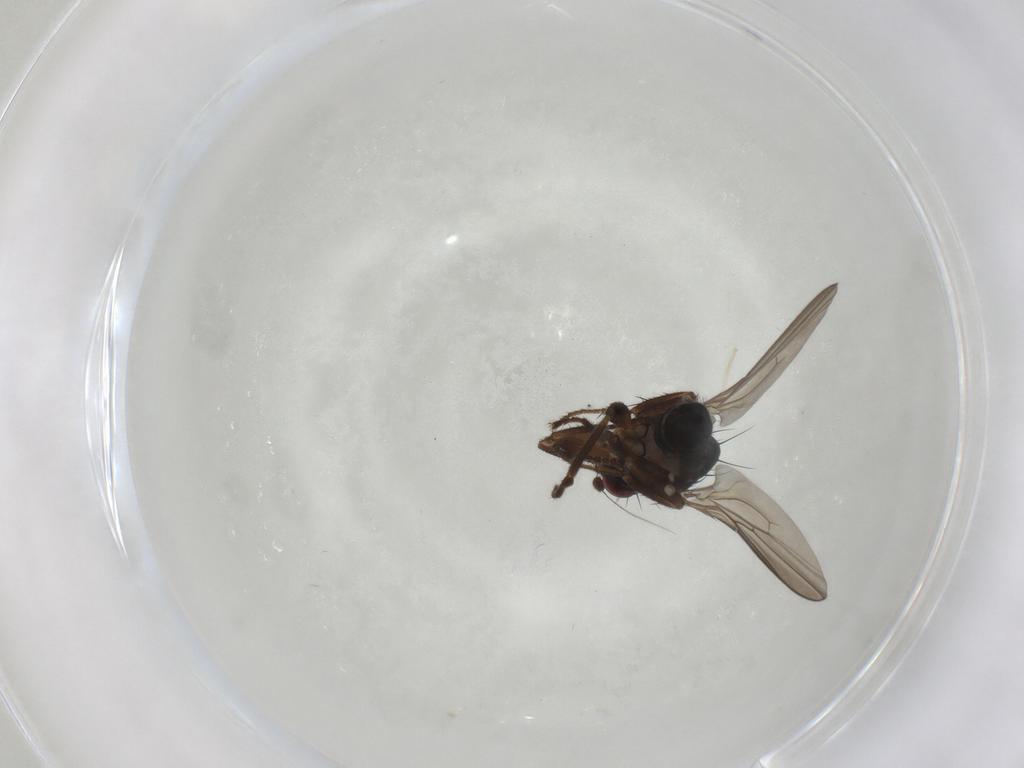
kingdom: Animalia
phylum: Arthropoda
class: Insecta
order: Diptera
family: Sphaeroceridae
